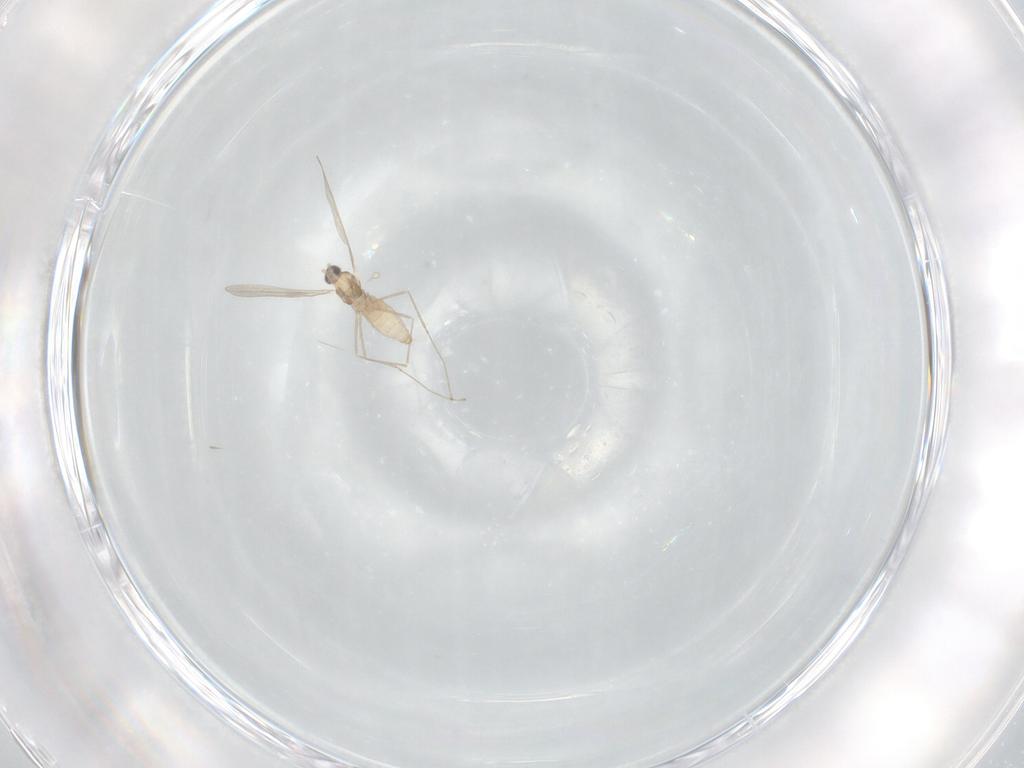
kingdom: Animalia
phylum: Arthropoda
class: Insecta
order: Diptera
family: Cecidomyiidae
